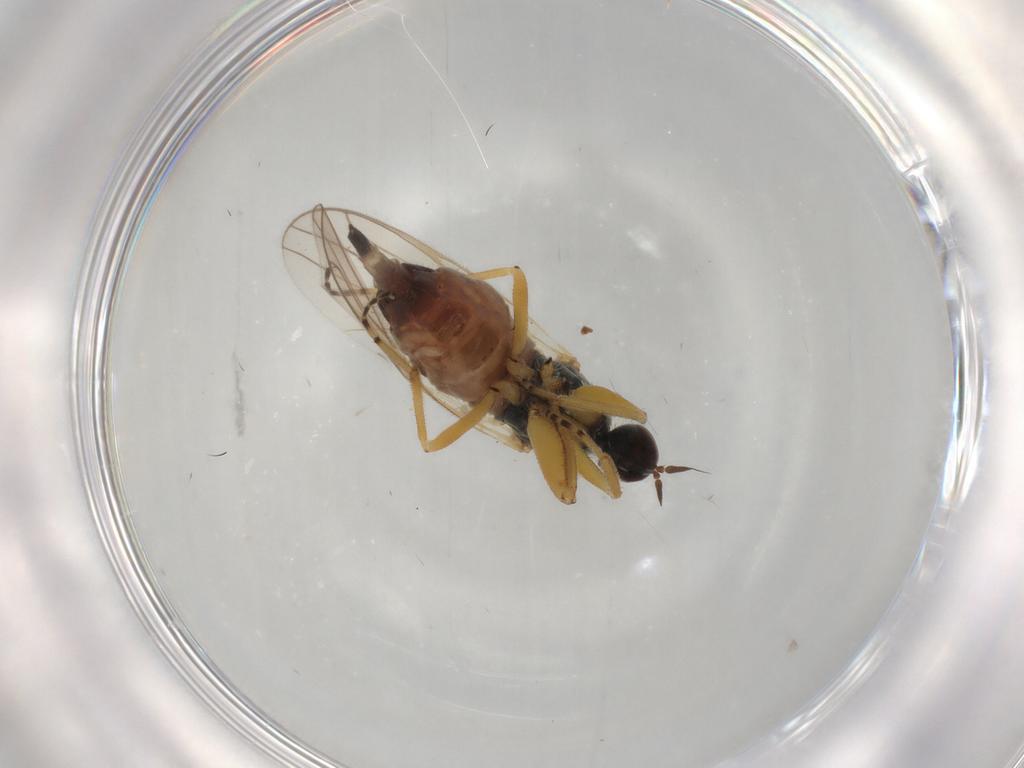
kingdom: Animalia
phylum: Arthropoda
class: Insecta
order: Diptera
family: Hybotidae
